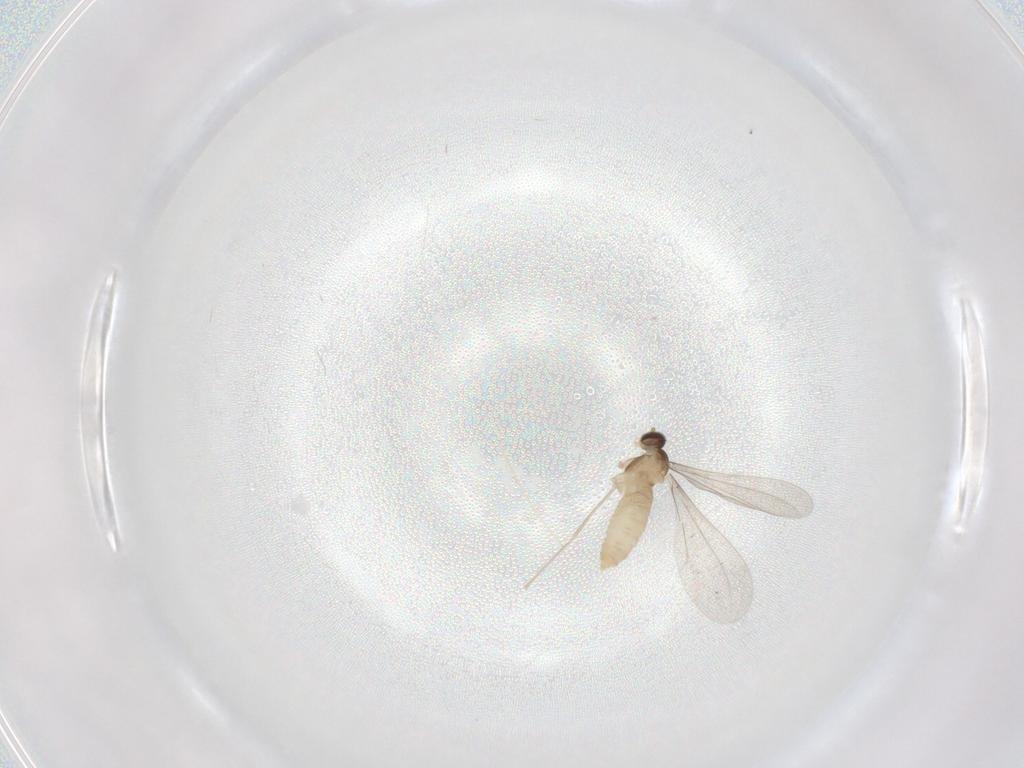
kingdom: Animalia
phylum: Arthropoda
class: Insecta
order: Diptera
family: Cecidomyiidae
